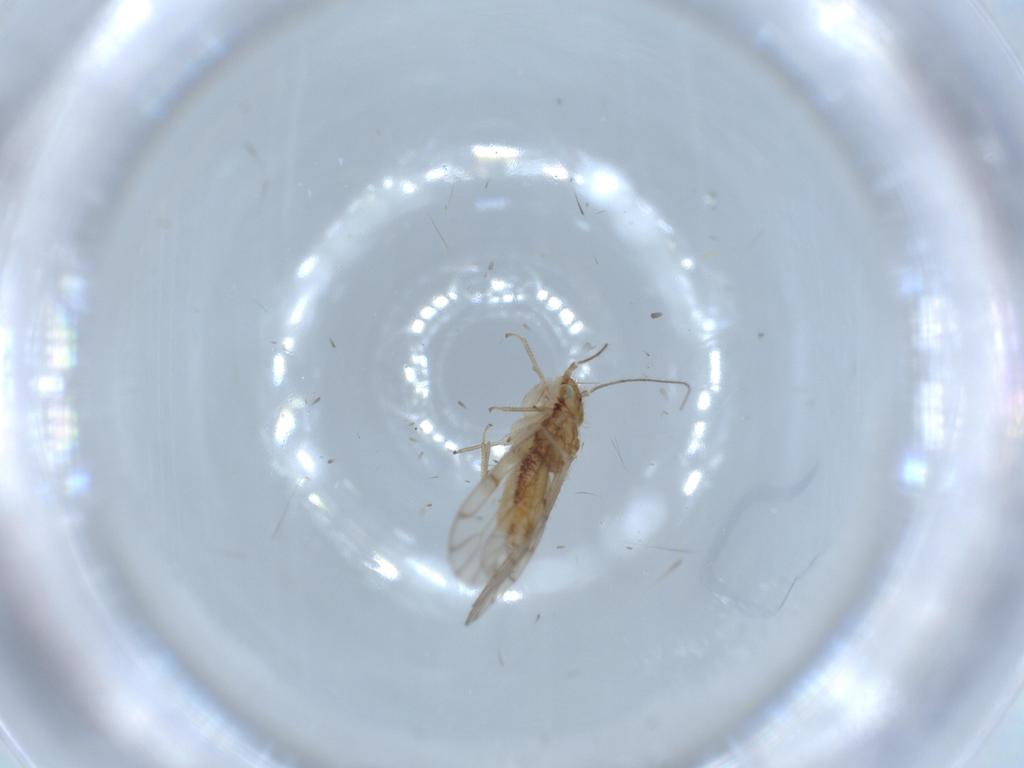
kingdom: Animalia
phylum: Arthropoda
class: Insecta
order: Psocodea
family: Ectopsocidae
